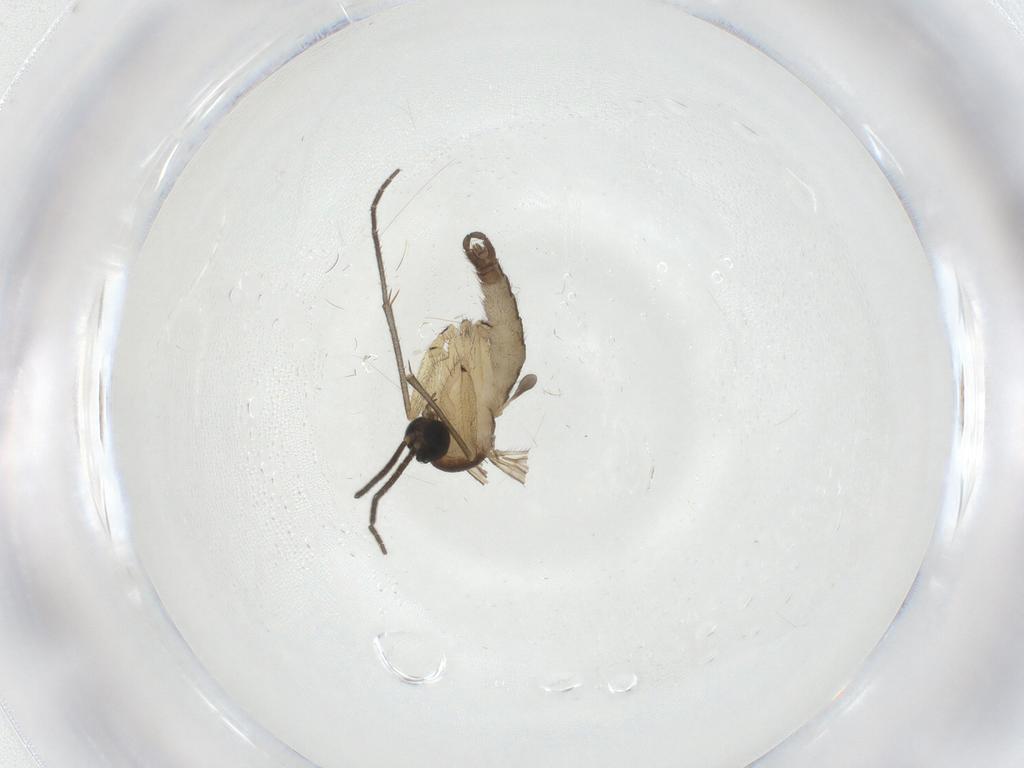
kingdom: Animalia
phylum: Arthropoda
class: Insecta
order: Diptera
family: Sciaridae
